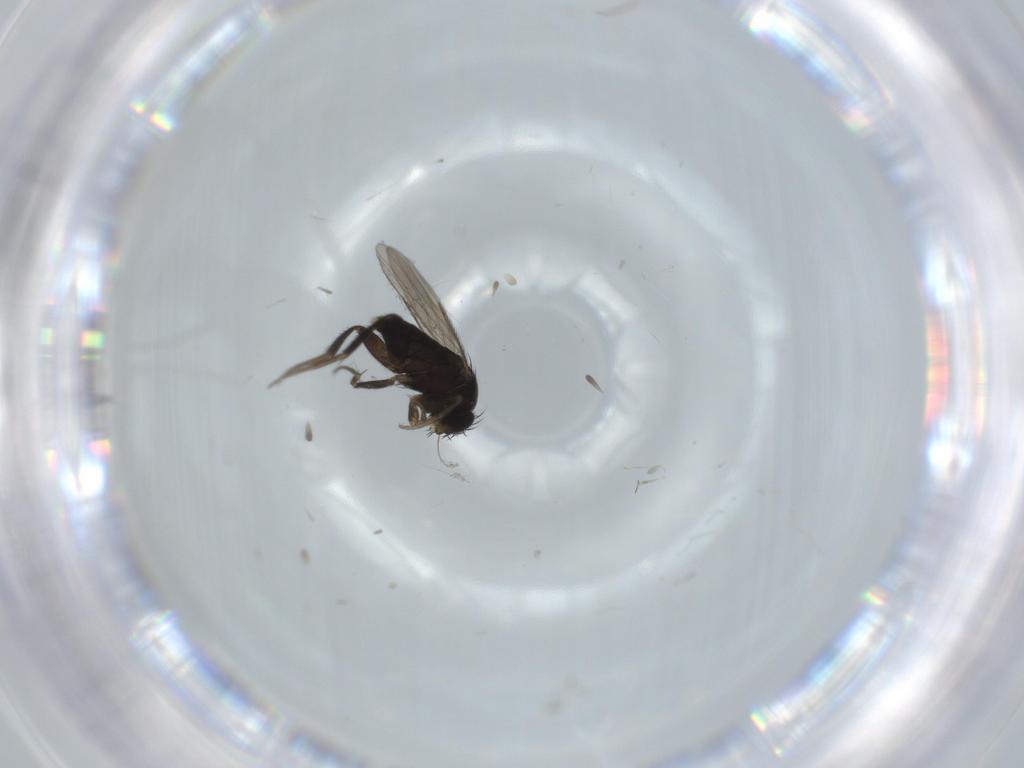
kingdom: Animalia
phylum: Arthropoda
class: Insecta
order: Diptera
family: Phoridae
